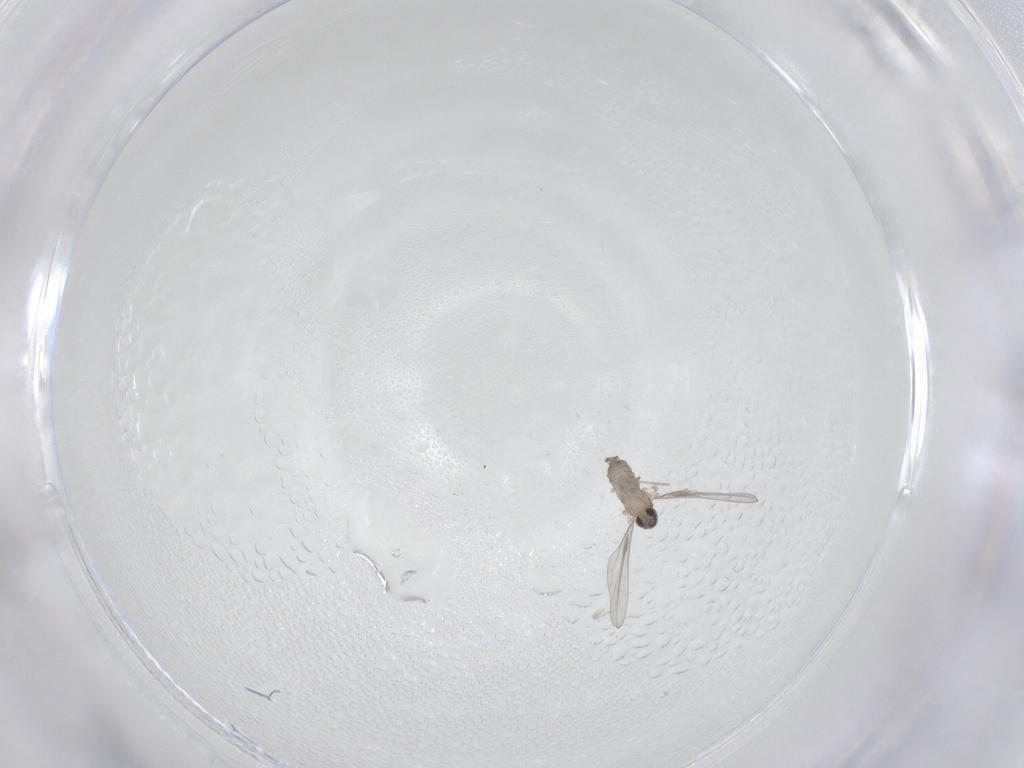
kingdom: Animalia
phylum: Arthropoda
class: Insecta
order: Diptera
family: Cecidomyiidae
